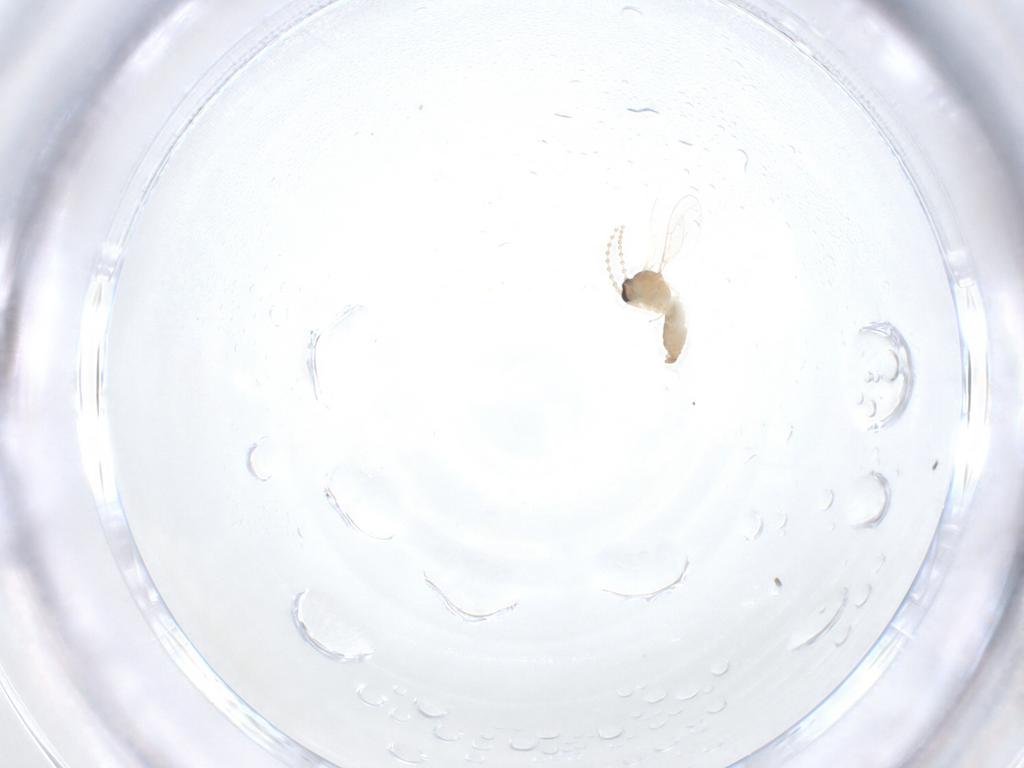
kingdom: Animalia
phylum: Arthropoda
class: Insecta
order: Diptera
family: Cecidomyiidae
